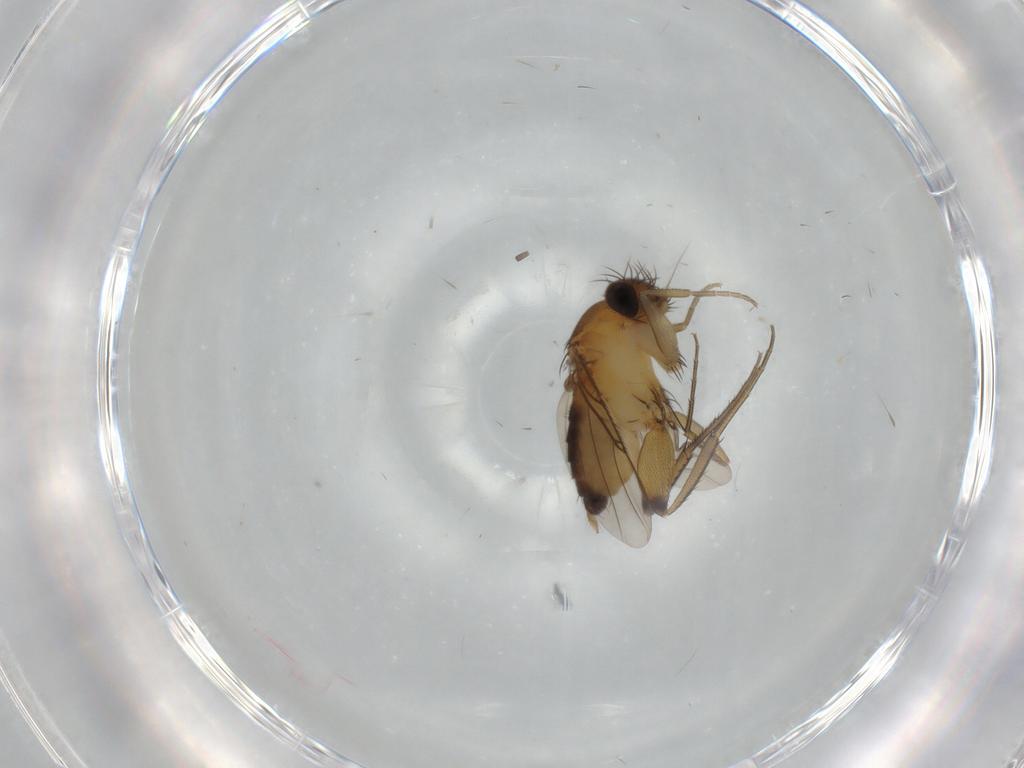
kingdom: Animalia
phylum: Arthropoda
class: Insecta
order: Diptera
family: Phoridae
